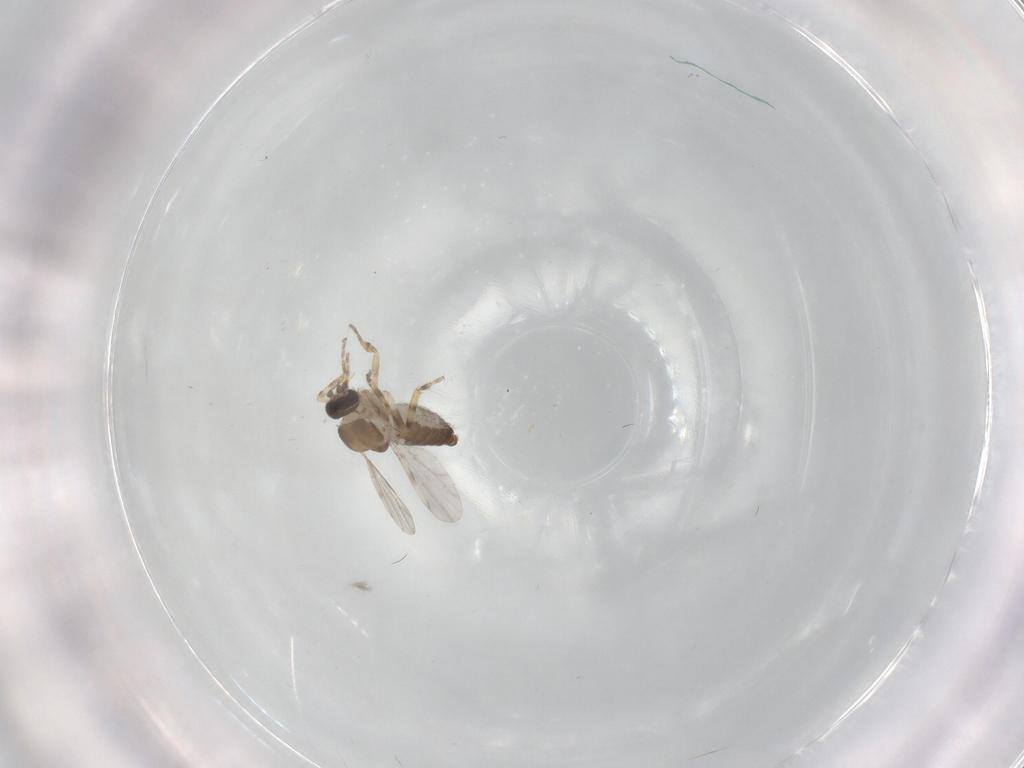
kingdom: Animalia
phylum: Arthropoda
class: Insecta
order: Diptera
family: Ceratopogonidae
